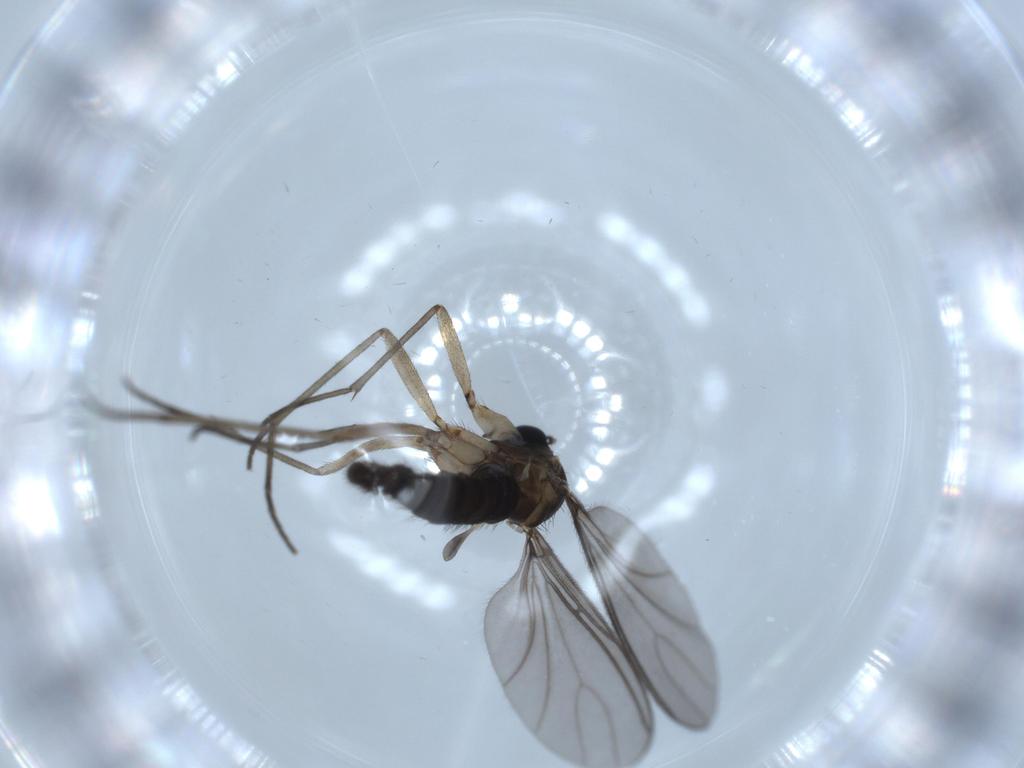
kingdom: Animalia
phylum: Arthropoda
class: Insecta
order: Diptera
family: Sciaridae
